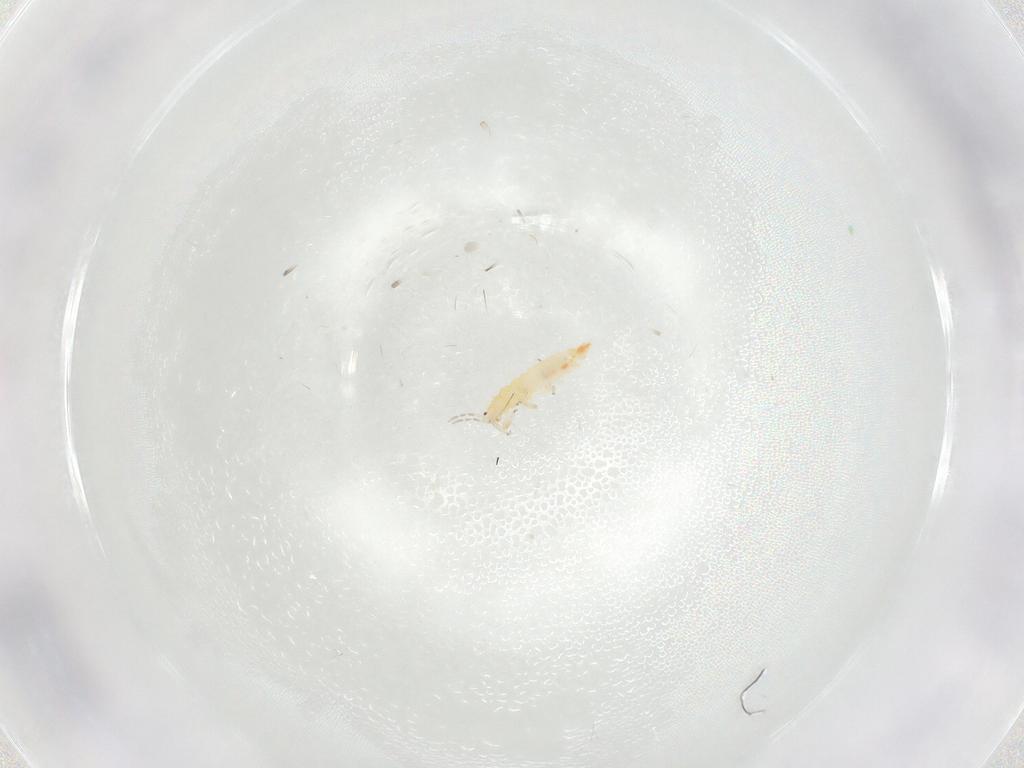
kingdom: Animalia
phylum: Arthropoda
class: Insecta
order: Thysanoptera
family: Aeolothripidae
